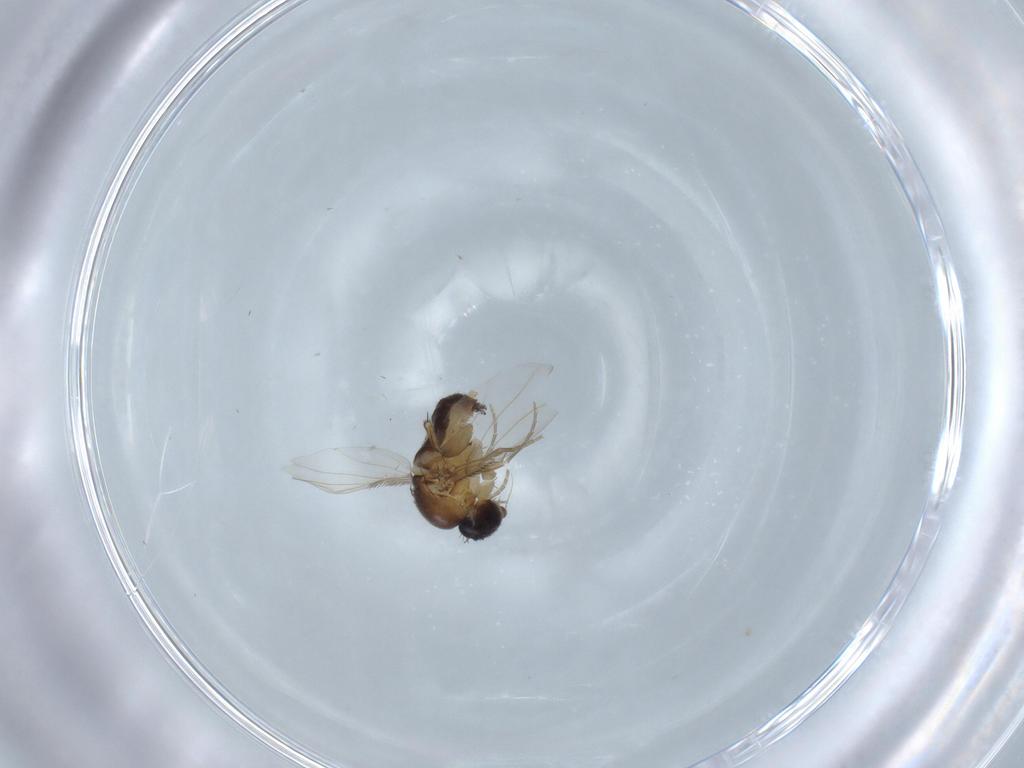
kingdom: Animalia
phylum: Arthropoda
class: Insecta
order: Diptera
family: Phoridae
